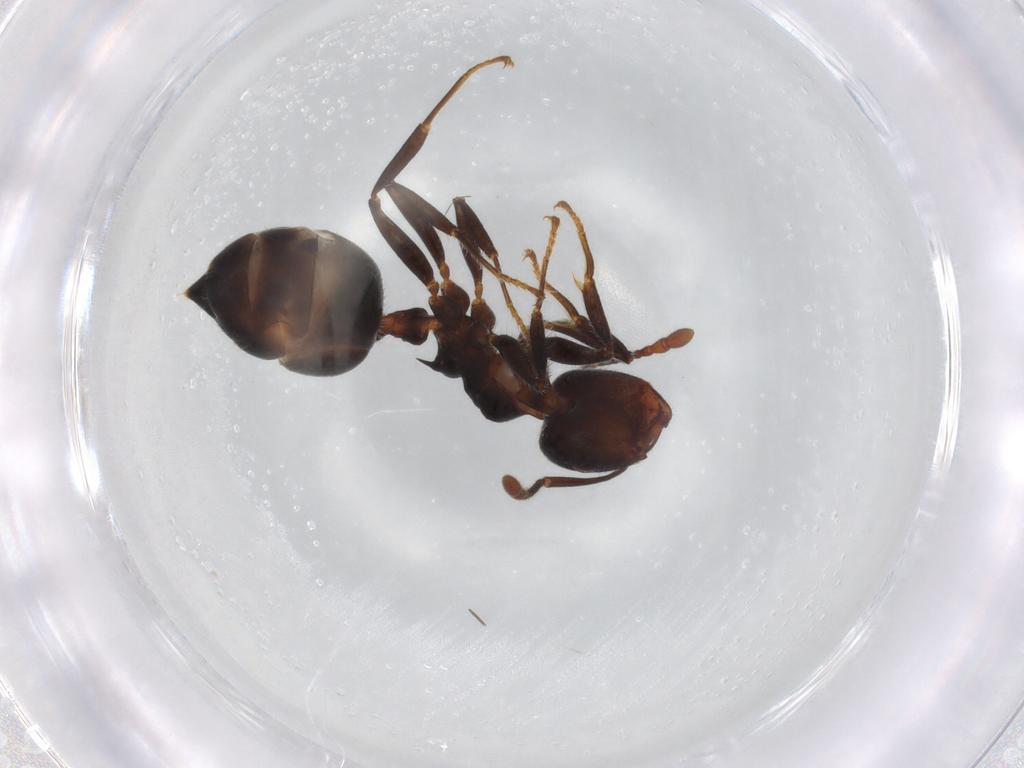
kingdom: Animalia
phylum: Arthropoda
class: Insecta
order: Hymenoptera
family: Formicidae
